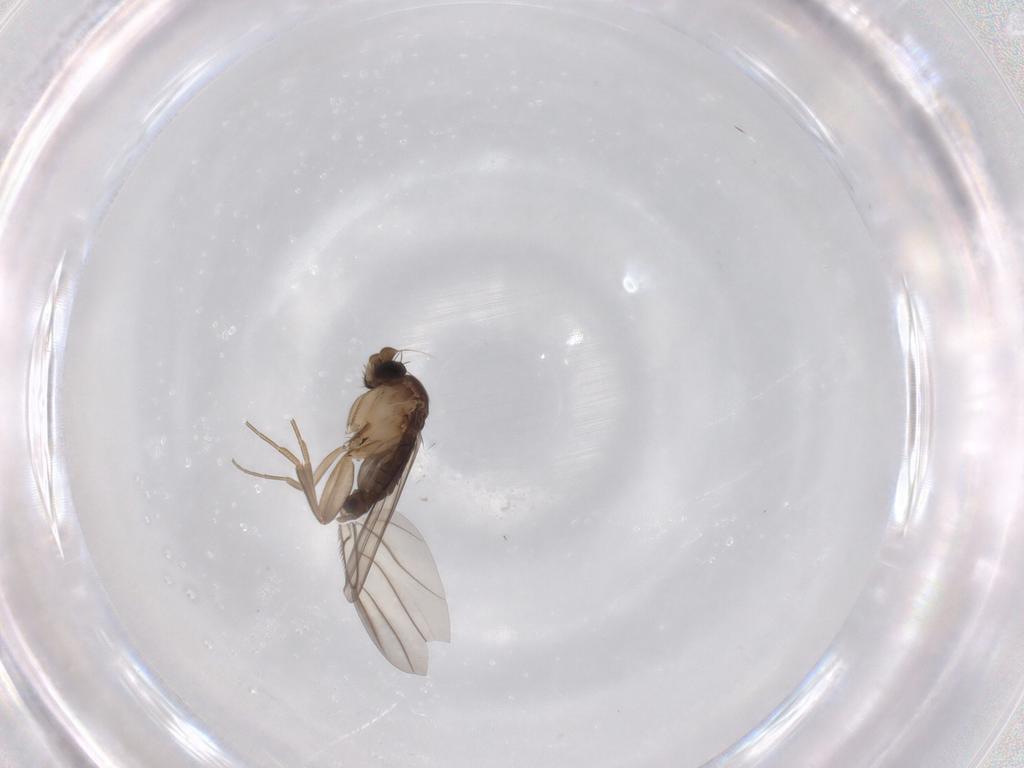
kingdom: Animalia
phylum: Arthropoda
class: Insecta
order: Diptera
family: Phoridae
